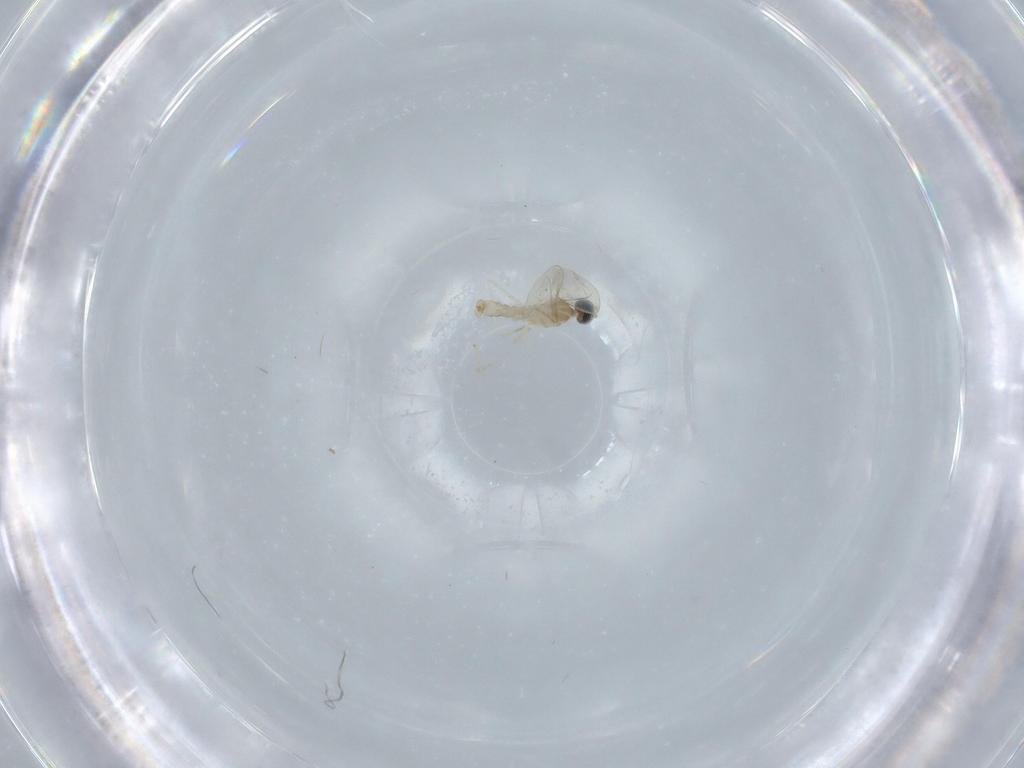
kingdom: Animalia
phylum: Arthropoda
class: Insecta
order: Diptera
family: Cecidomyiidae
